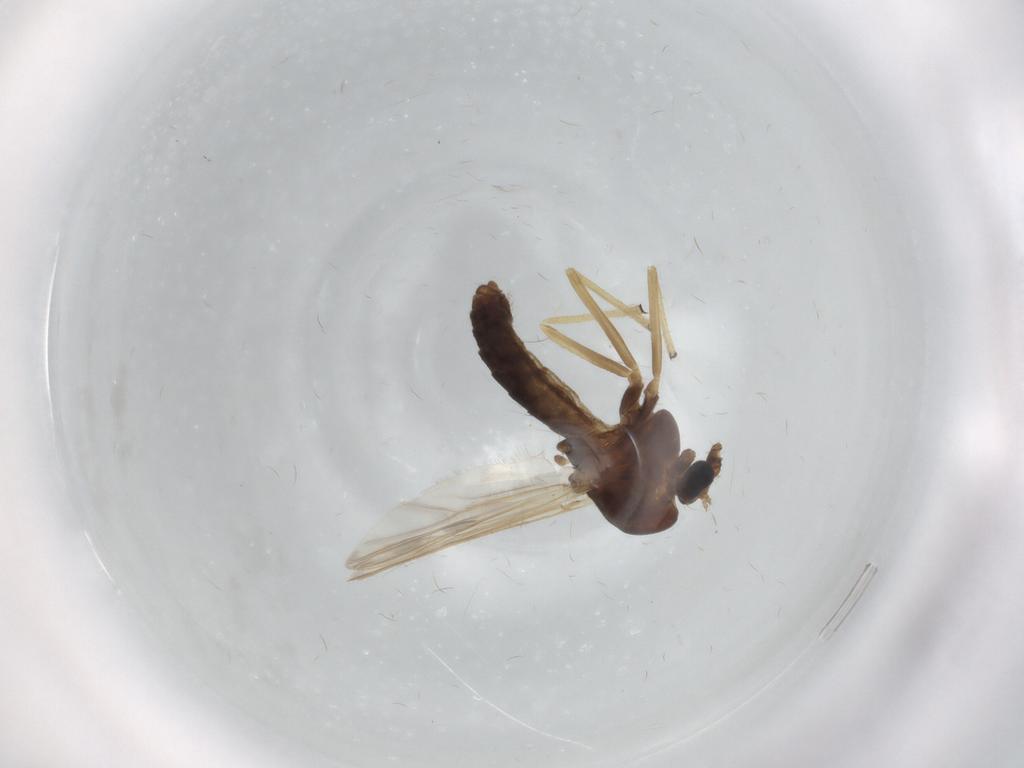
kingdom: Animalia
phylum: Arthropoda
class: Insecta
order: Diptera
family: Chironomidae
